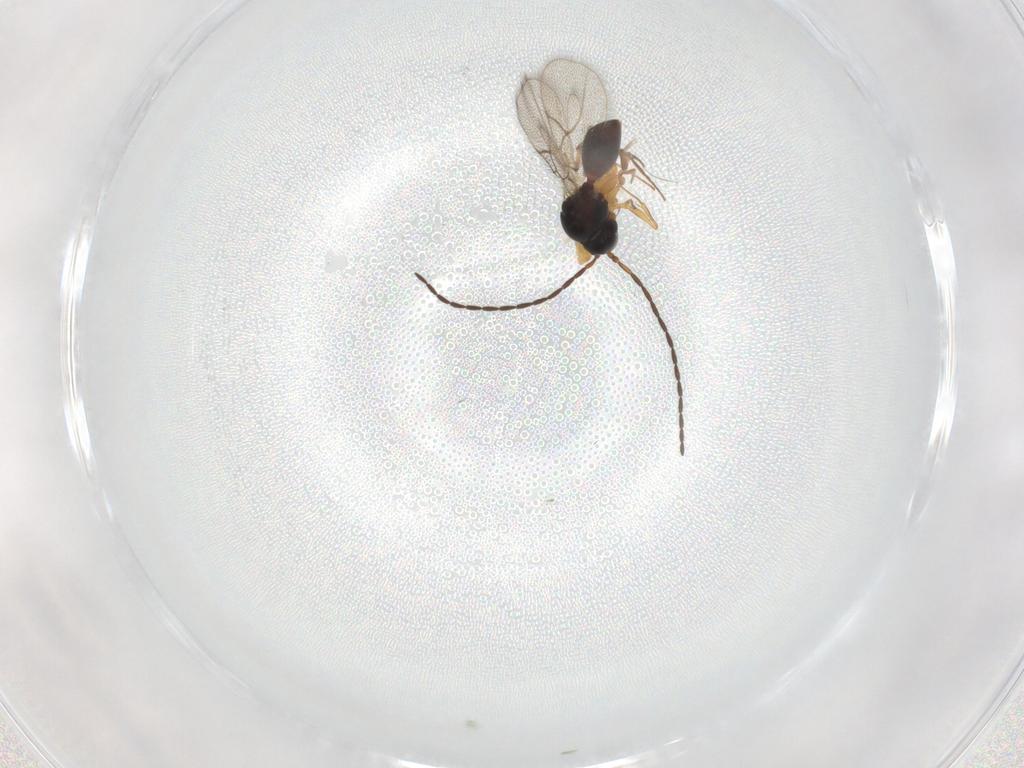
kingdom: Animalia
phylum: Arthropoda
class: Insecta
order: Hymenoptera
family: Figitidae
